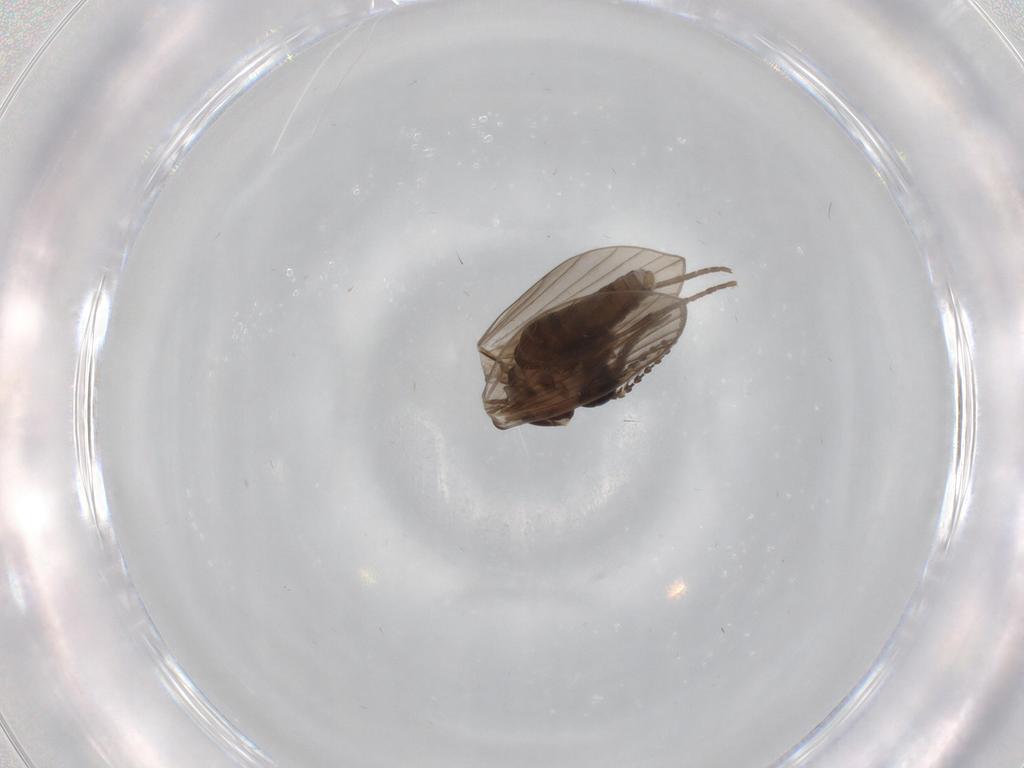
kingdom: Animalia
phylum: Arthropoda
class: Insecta
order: Diptera
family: Psychodidae
